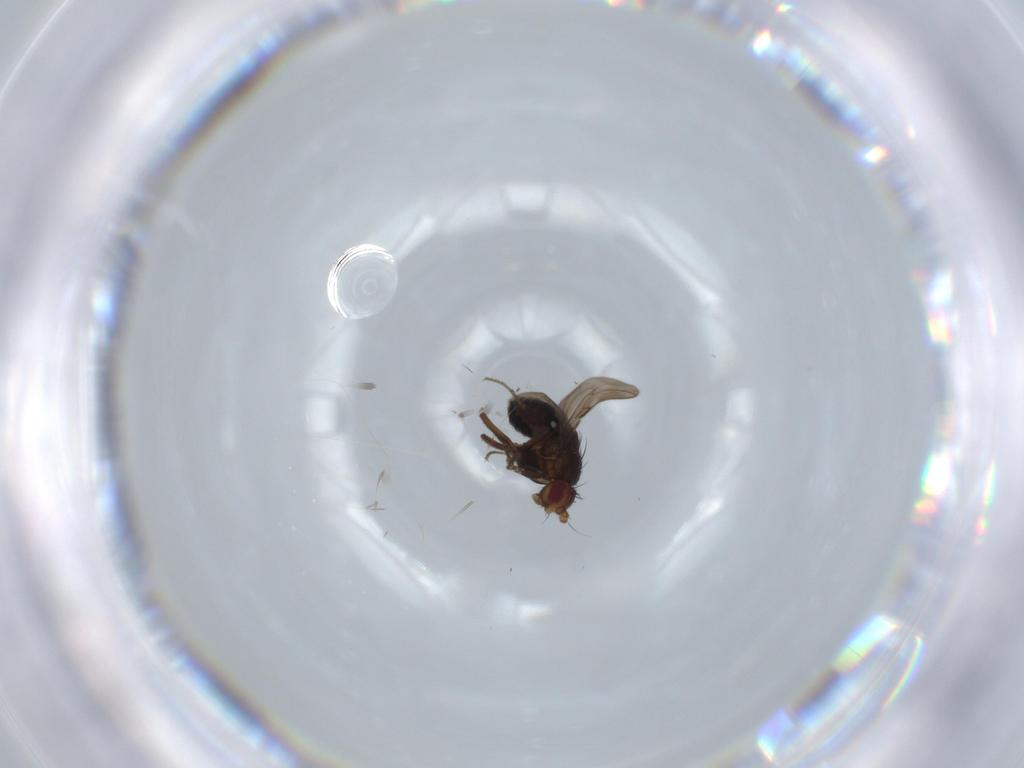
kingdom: Animalia
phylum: Arthropoda
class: Insecta
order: Diptera
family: Sphaeroceridae
